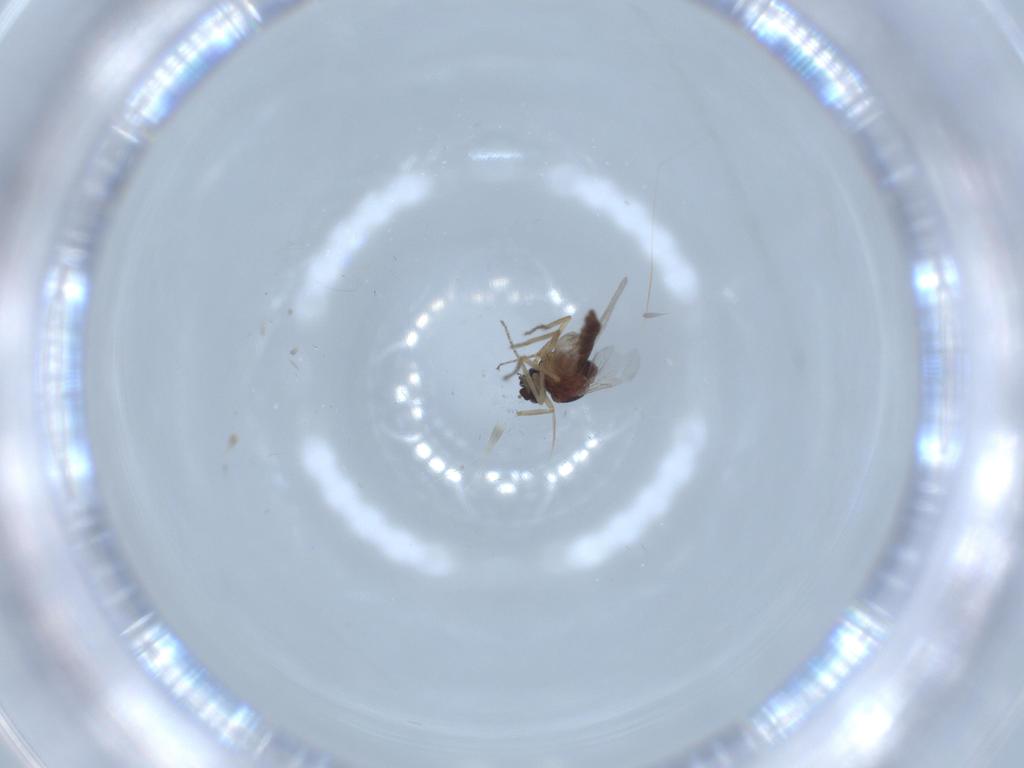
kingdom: Animalia
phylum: Arthropoda
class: Insecta
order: Diptera
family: Ceratopogonidae
